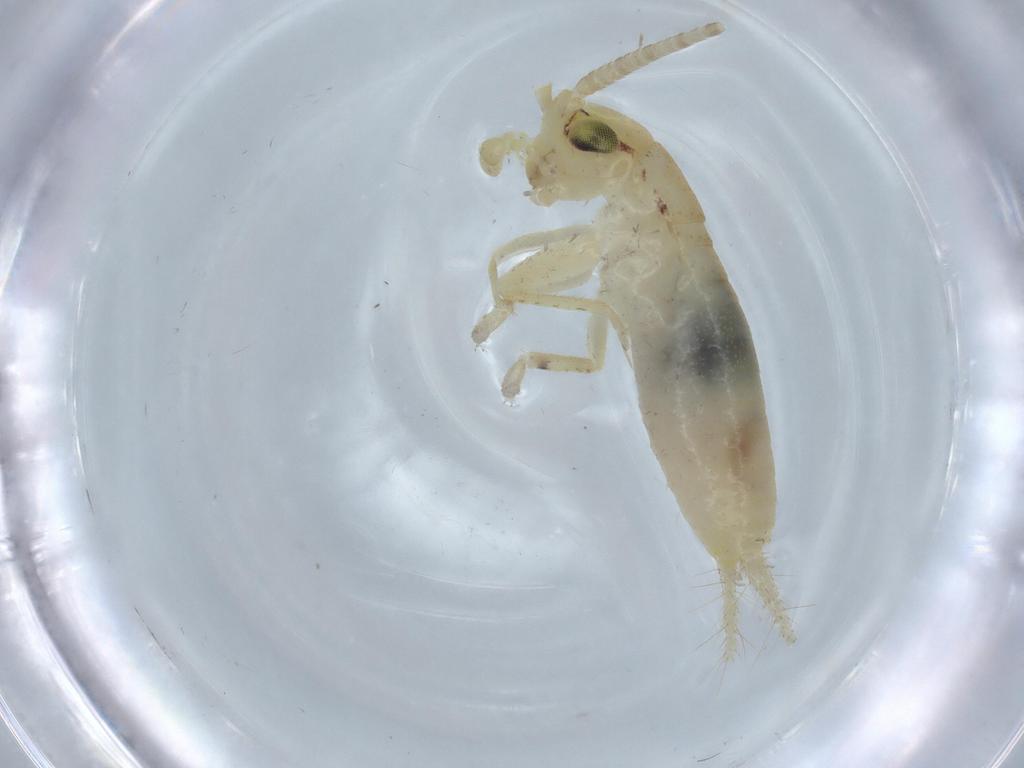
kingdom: Animalia
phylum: Arthropoda
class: Insecta
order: Orthoptera
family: Gryllidae
